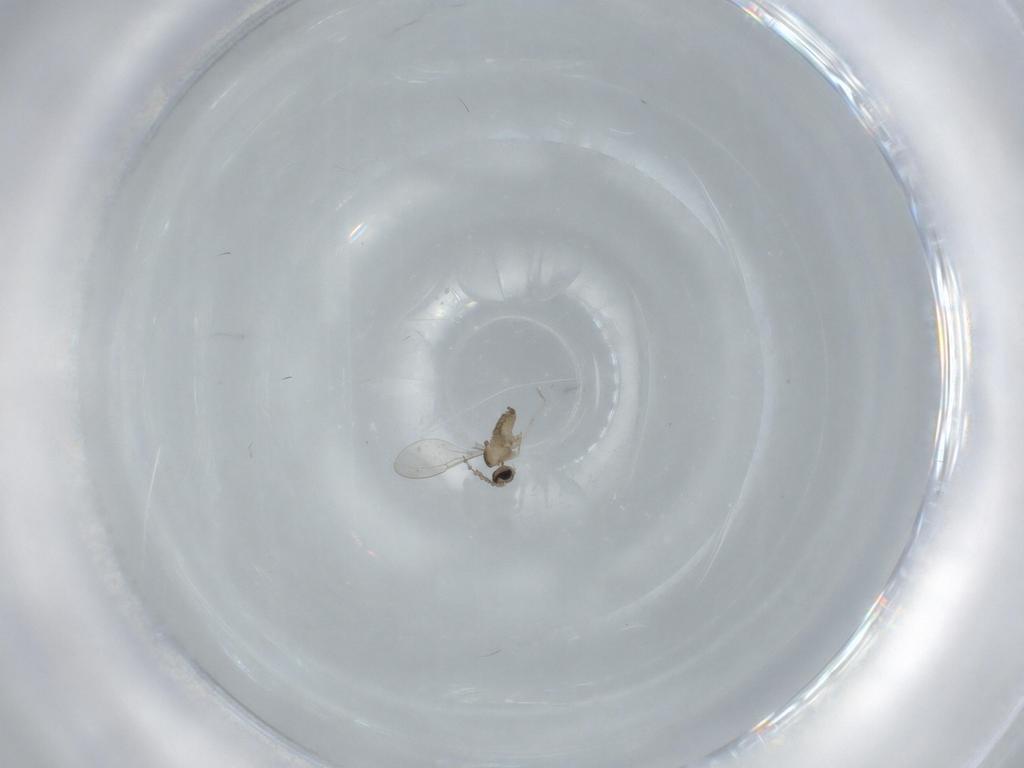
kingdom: Animalia
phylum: Arthropoda
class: Insecta
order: Diptera
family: Cecidomyiidae
